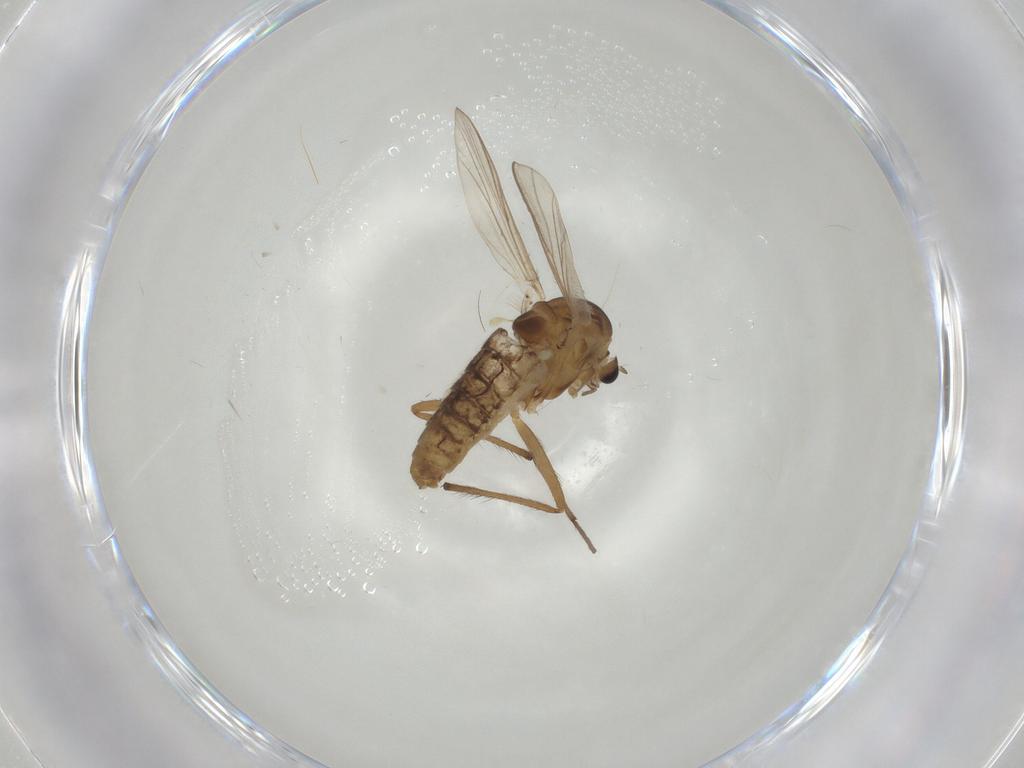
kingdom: Animalia
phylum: Arthropoda
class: Insecta
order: Diptera
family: Chironomidae
